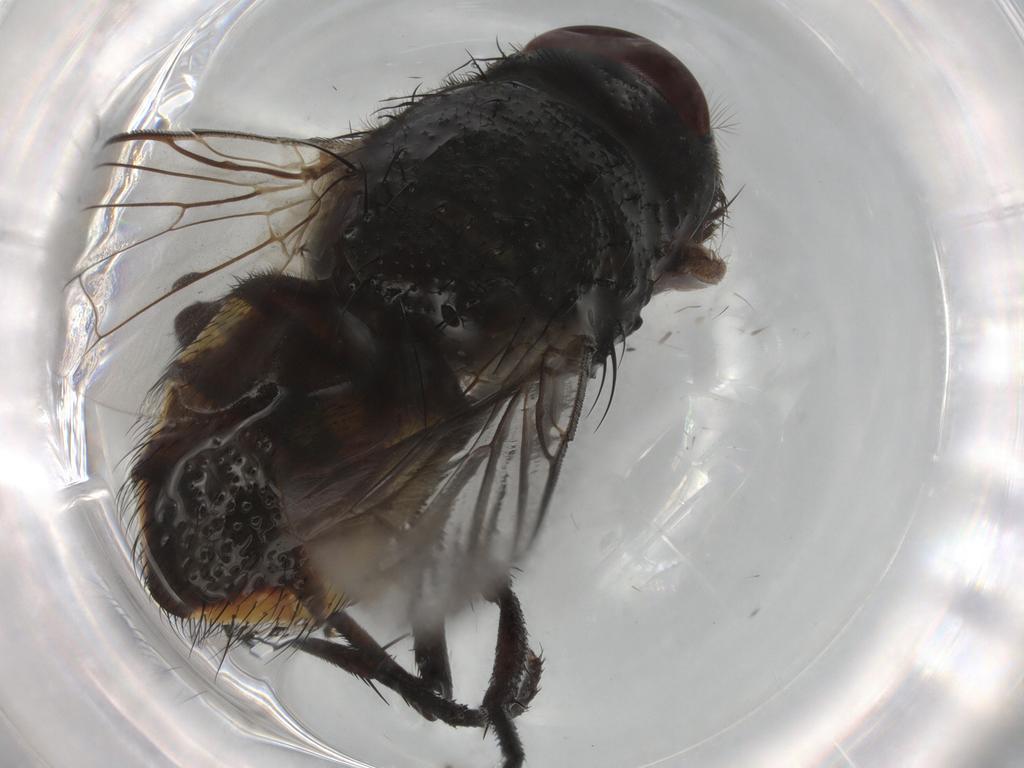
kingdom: Animalia
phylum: Arthropoda
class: Insecta
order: Diptera
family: Muscidae
